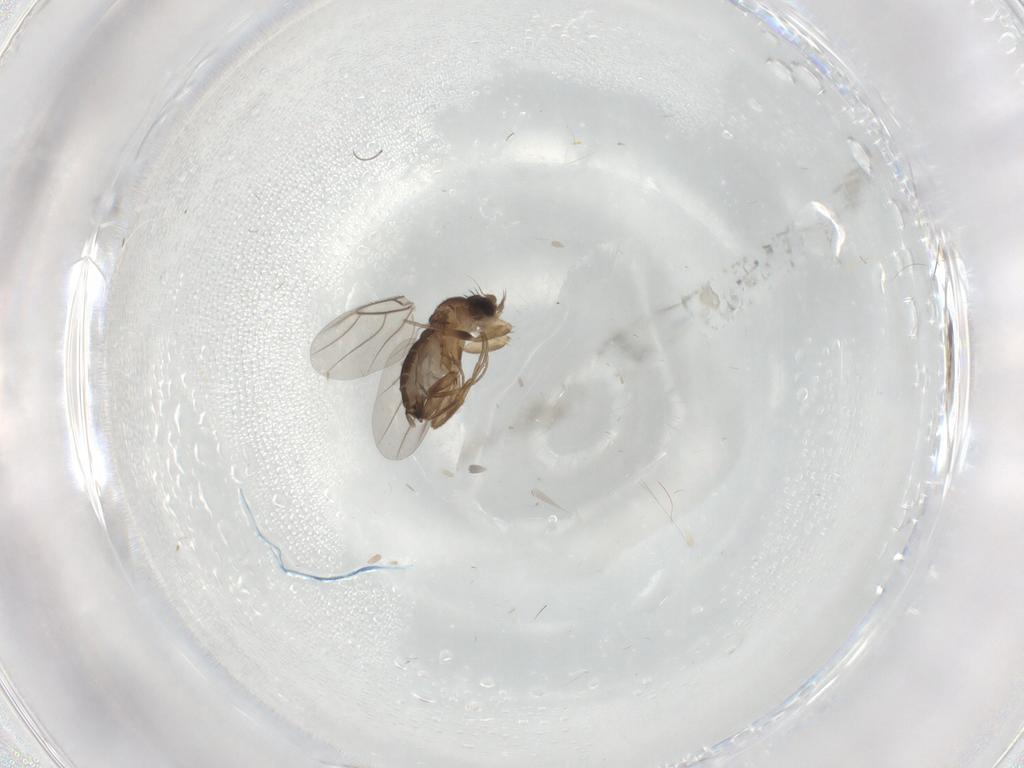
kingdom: Animalia
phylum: Arthropoda
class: Insecta
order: Diptera
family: Phoridae
